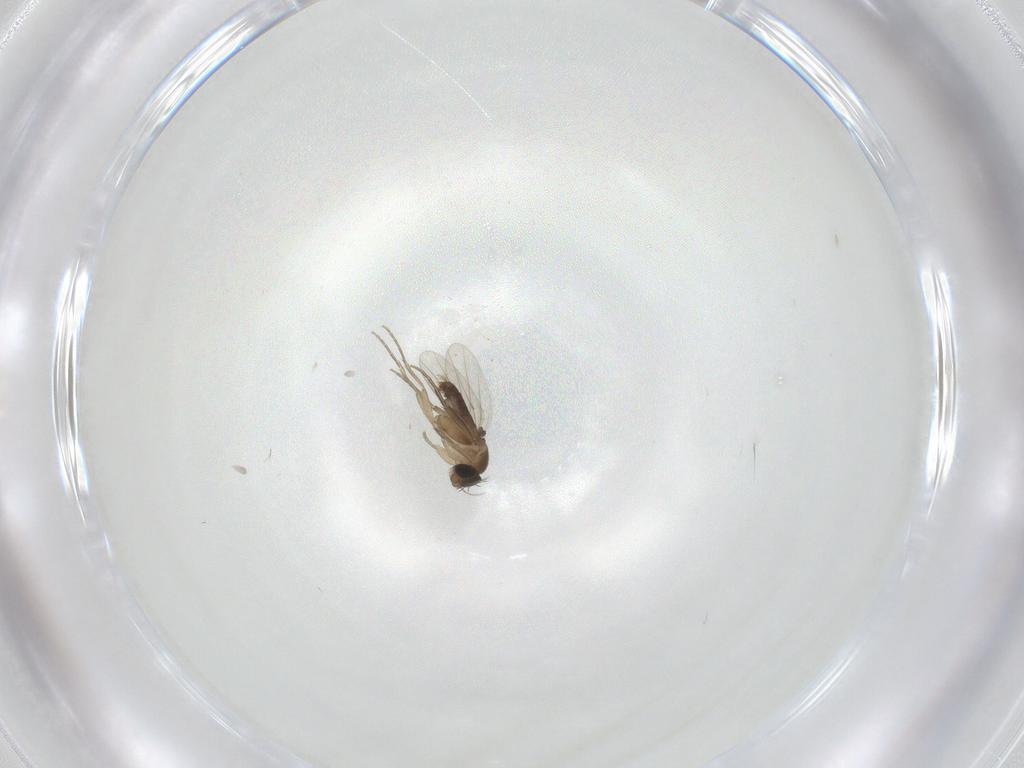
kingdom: Animalia
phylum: Arthropoda
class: Insecta
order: Diptera
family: Phoridae
